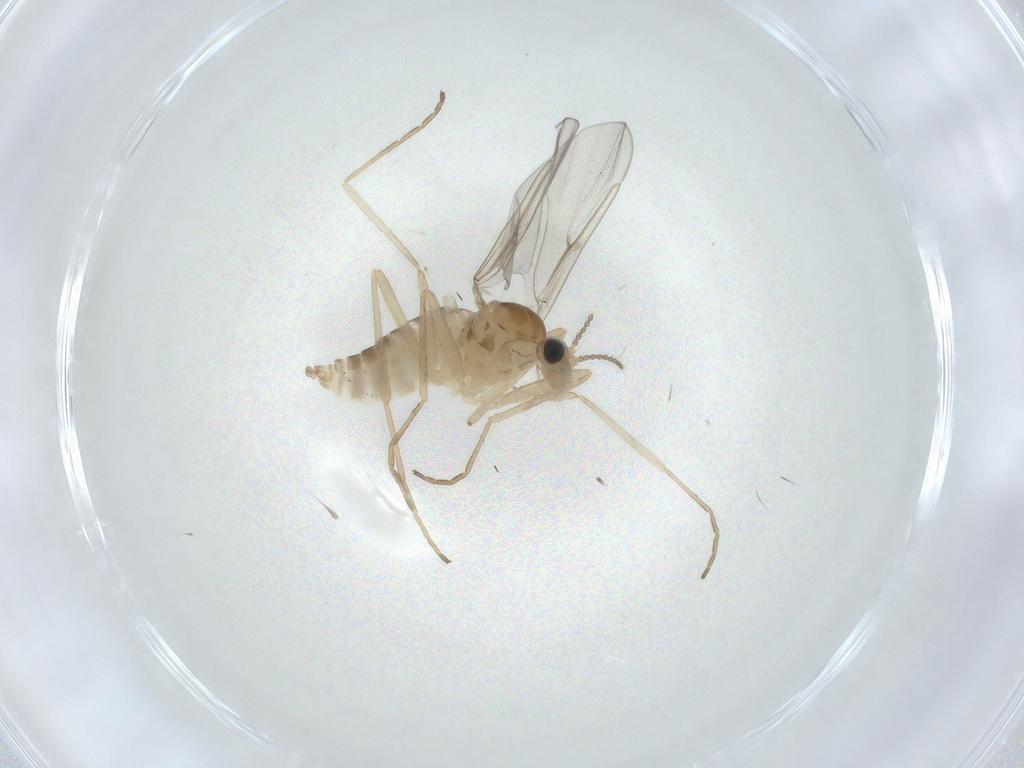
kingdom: Animalia
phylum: Arthropoda
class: Insecta
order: Diptera
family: Cecidomyiidae
